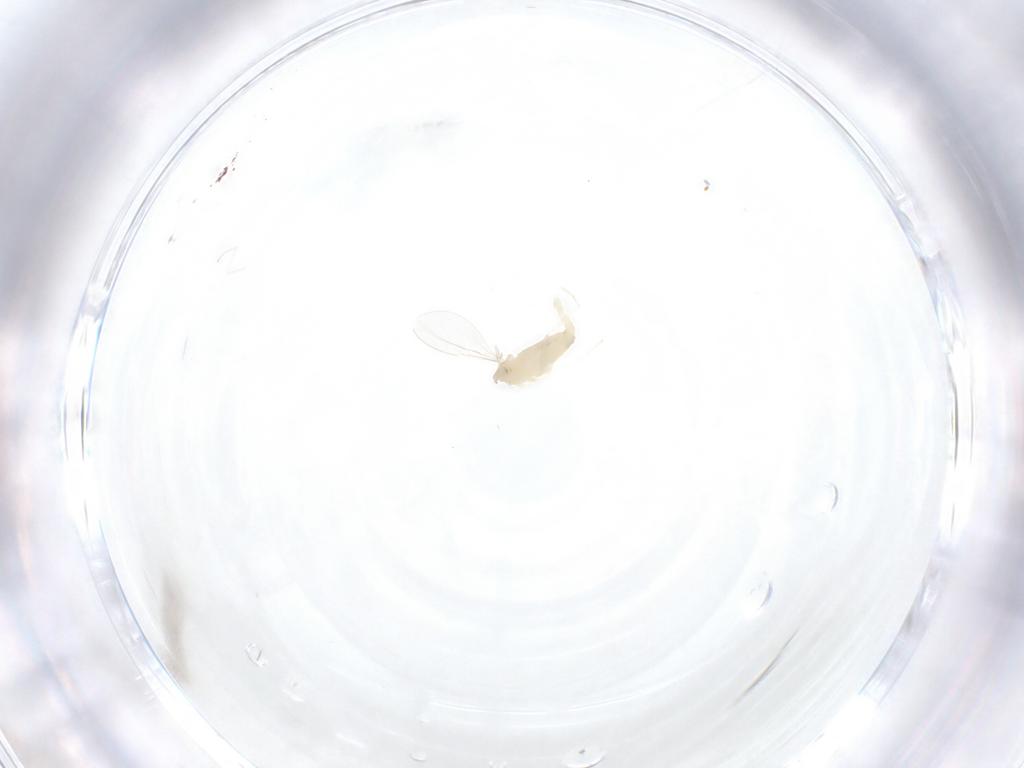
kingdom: Animalia
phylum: Arthropoda
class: Insecta
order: Diptera
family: Cecidomyiidae
